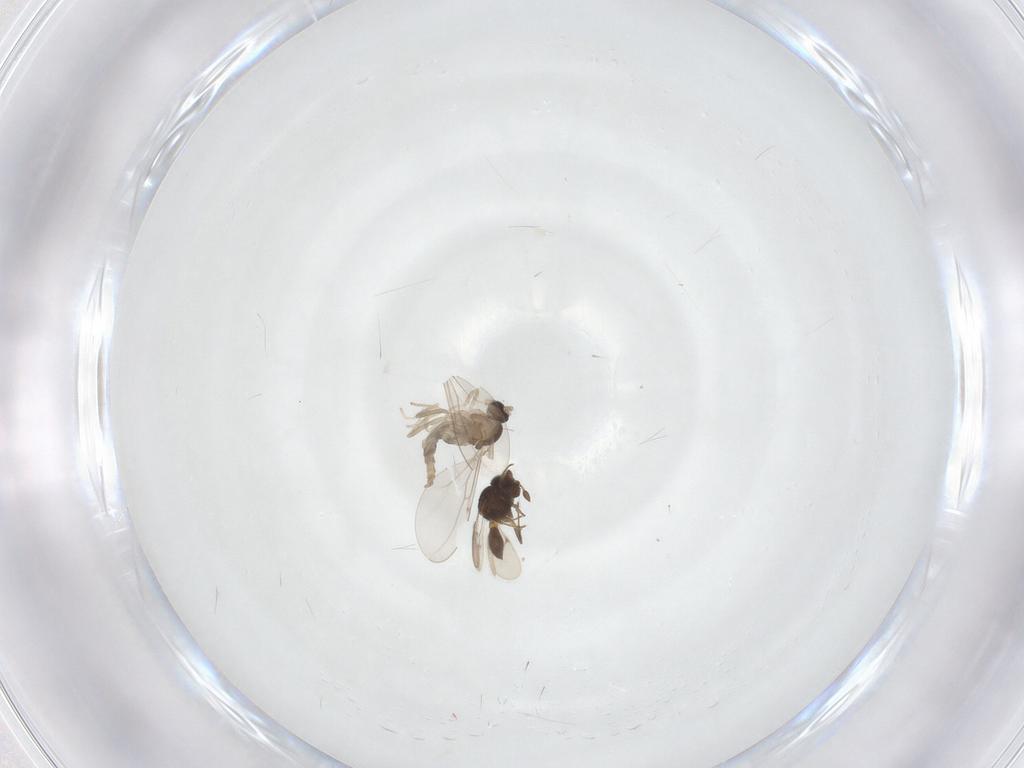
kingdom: Animalia
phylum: Arthropoda
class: Insecta
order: Diptera
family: Cecidomyiidae
